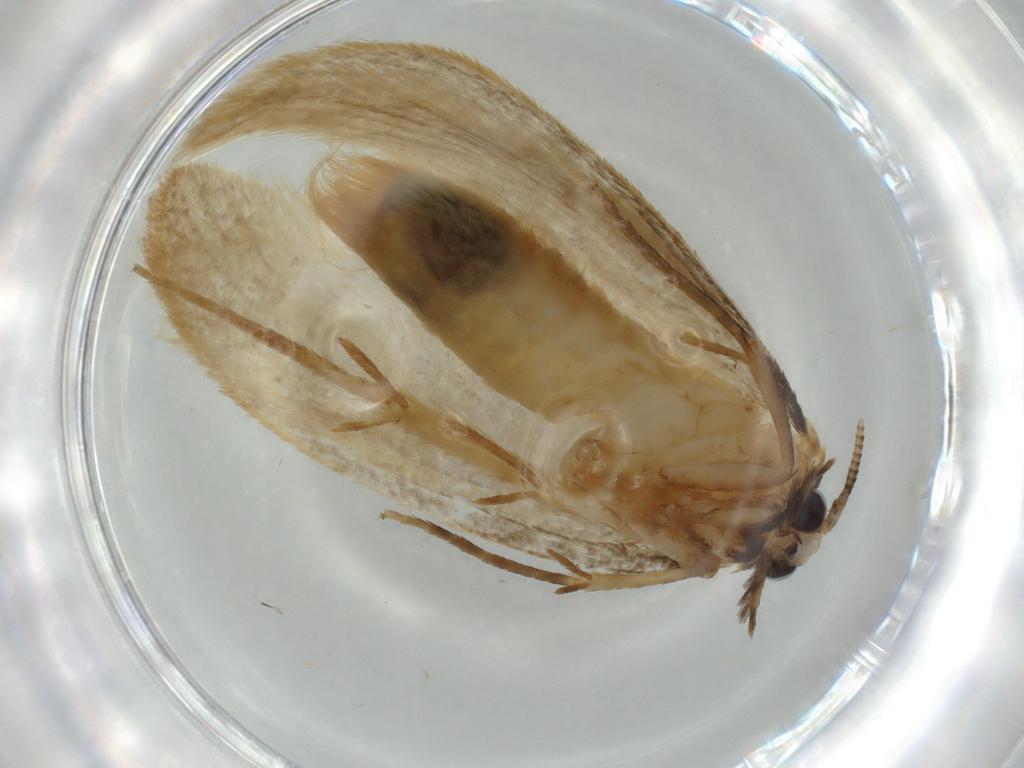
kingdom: Animalia
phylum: Arthropoda
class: Insecta
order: Lepidoptera
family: Tineidae
